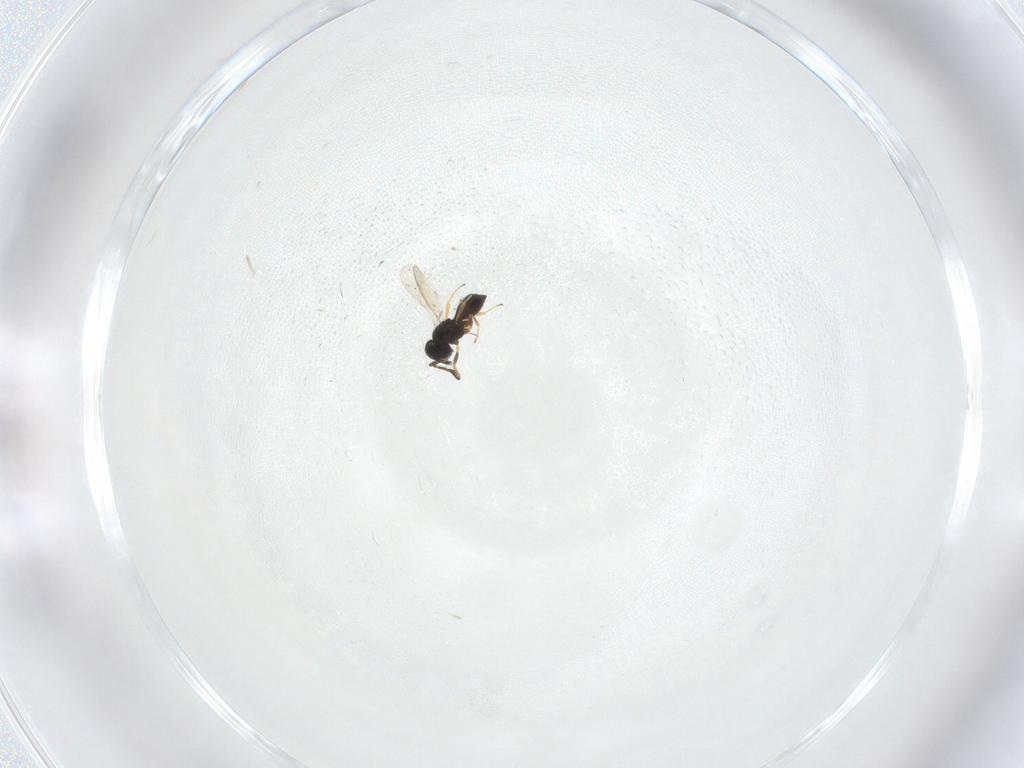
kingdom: Animalia
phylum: Arthropoda
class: Insecta
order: Hymenoptera
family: Scelionidae
